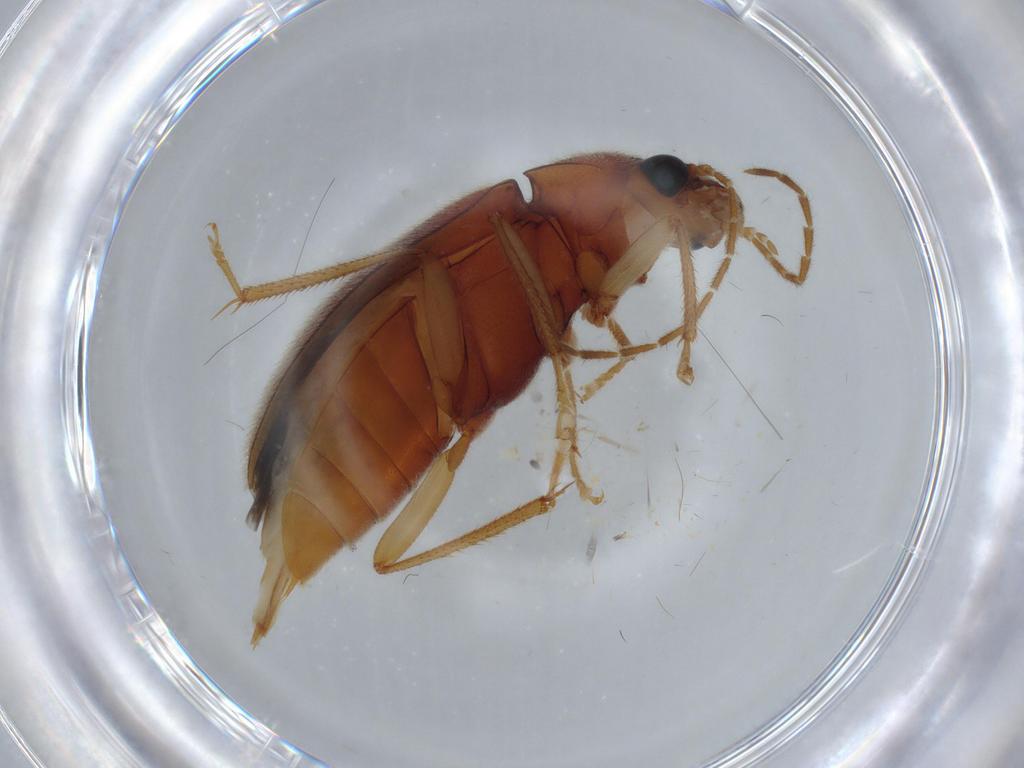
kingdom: Animalia
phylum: Arthropoda
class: Insecta
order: Coleoptera
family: Ptilodactylidae
